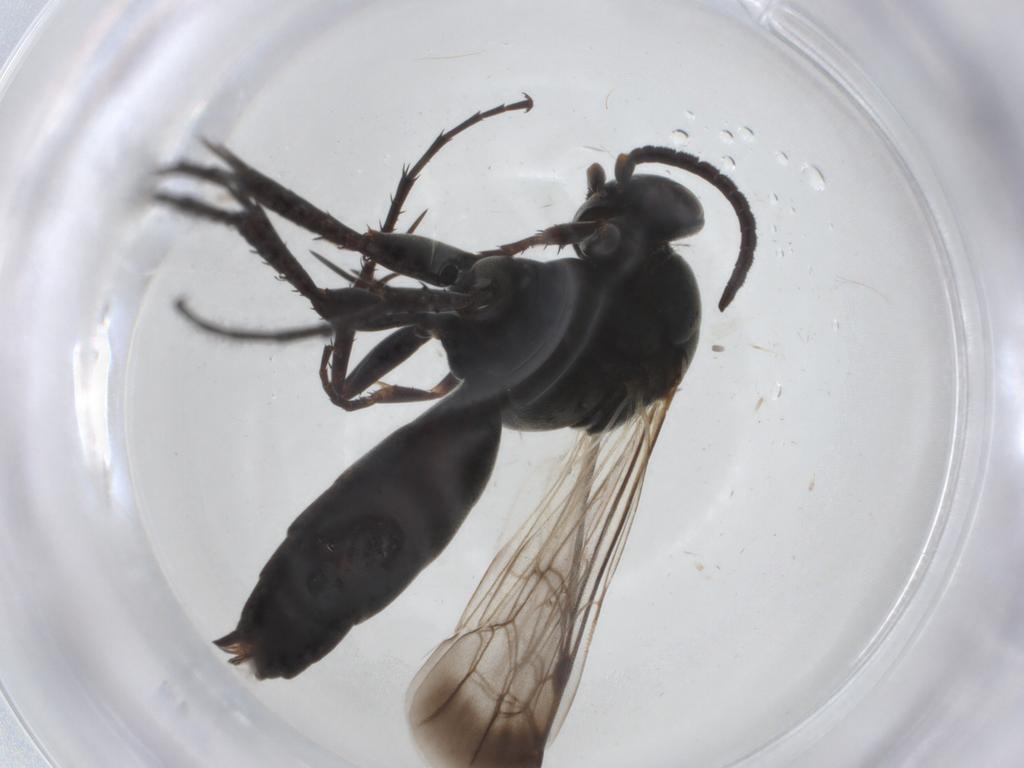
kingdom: Animalia
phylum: Arthropoda
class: Insecta
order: Hymenoptera
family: Pompilidae
